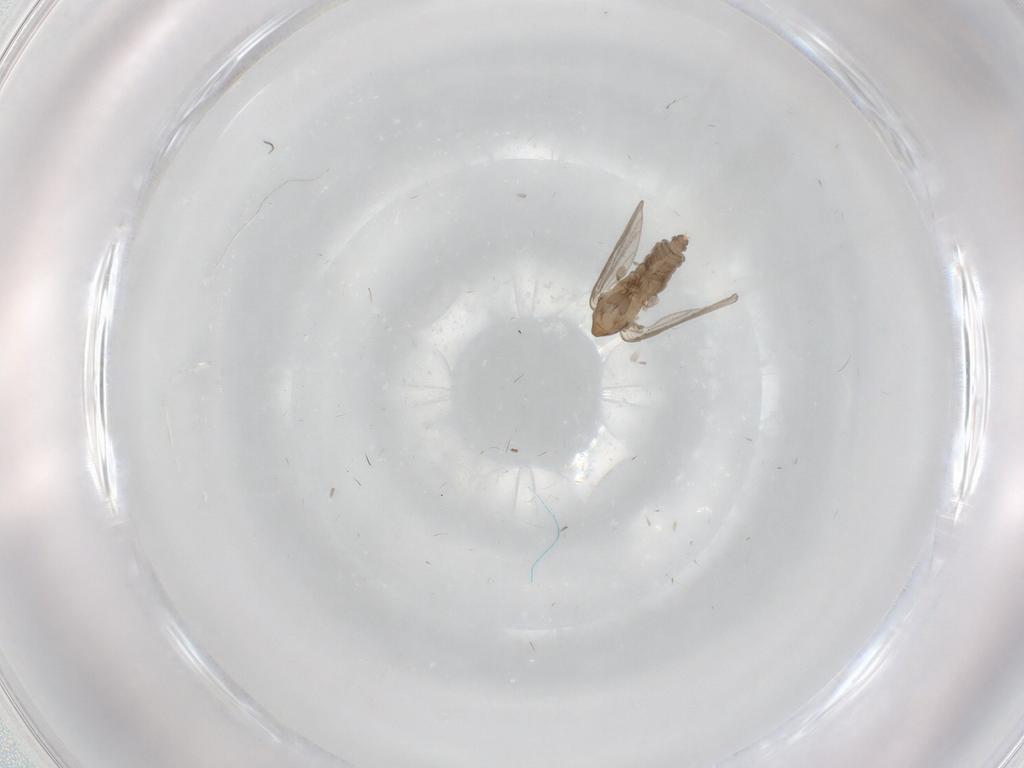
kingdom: Animalia
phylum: Arthropoda
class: Insecta
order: Diptera
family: Psychodidae
